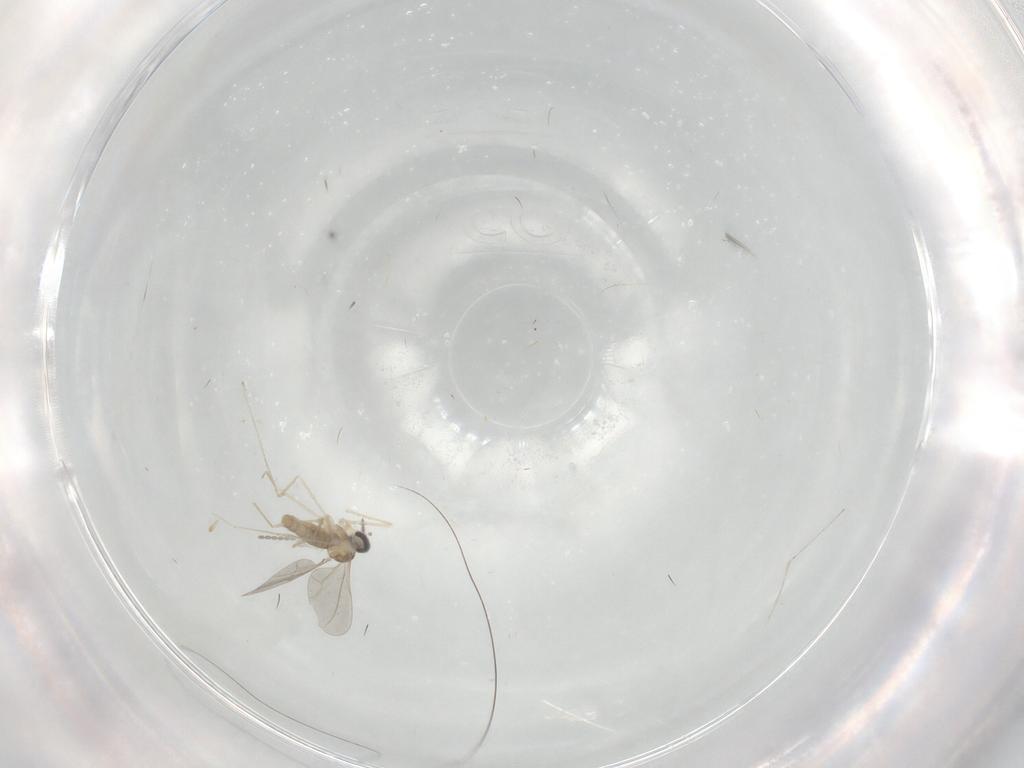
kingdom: Animalia
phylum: Arthropoda
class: Insecta
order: Diptera
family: Cecidomyiidae
